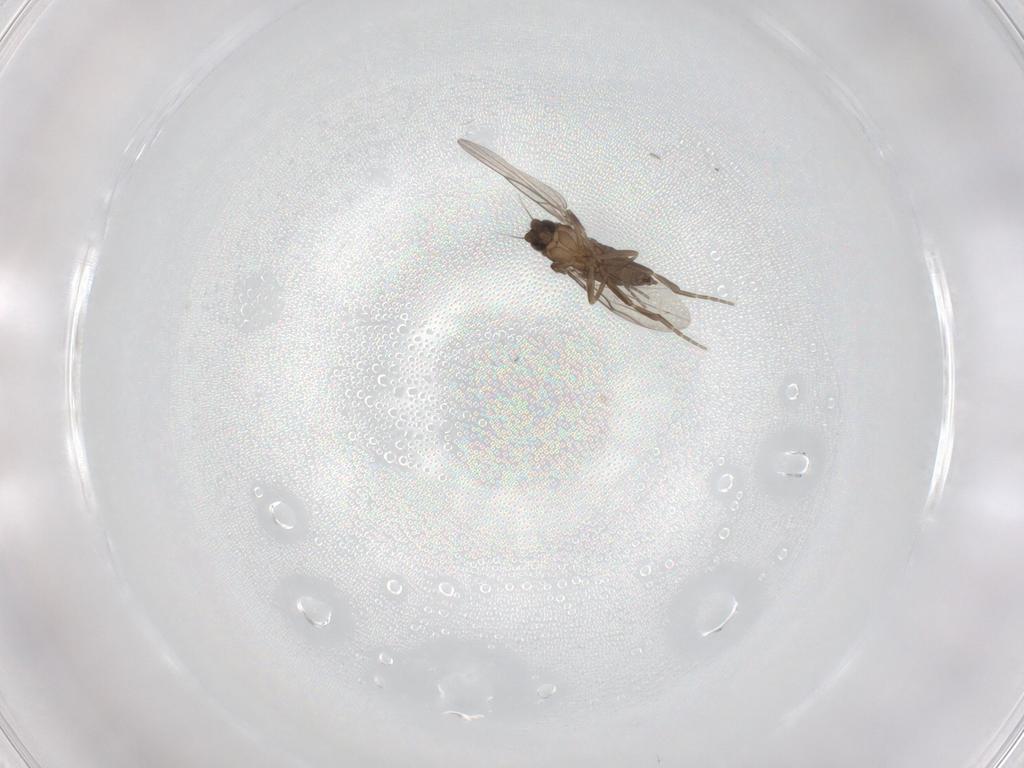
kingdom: Animalia
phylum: Arthropoda
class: Insecta
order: Diptera
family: Phoridae
